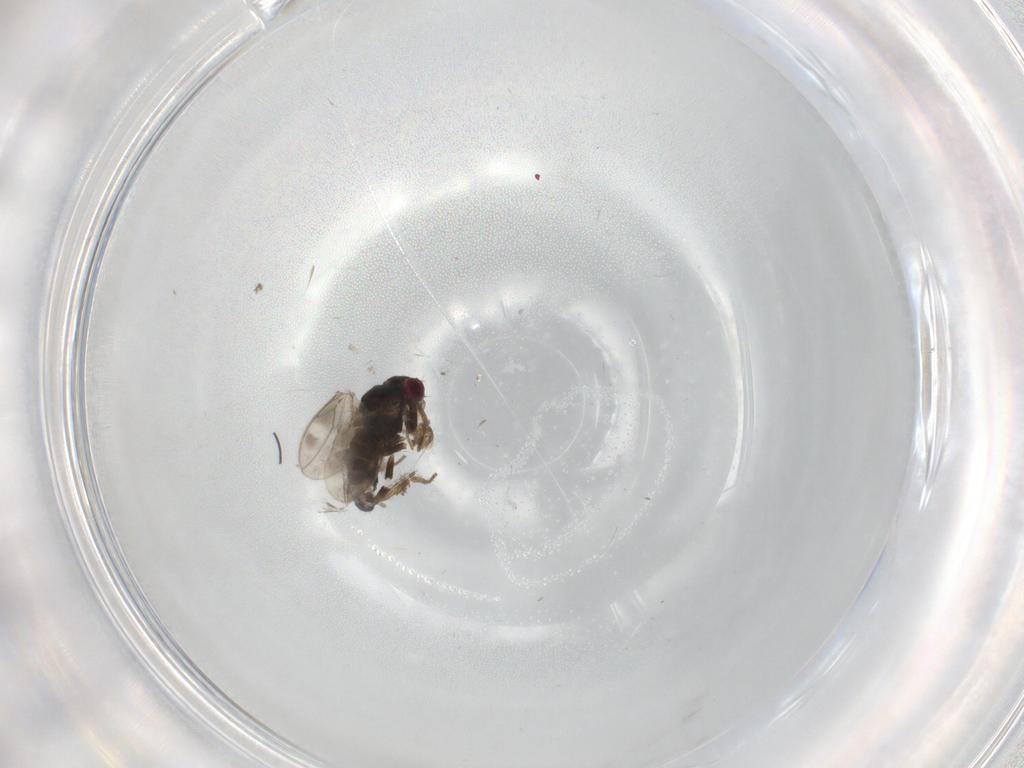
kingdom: Animalia
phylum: Arthropoda
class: Insecta
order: Diptera
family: Sphaeroceridae
